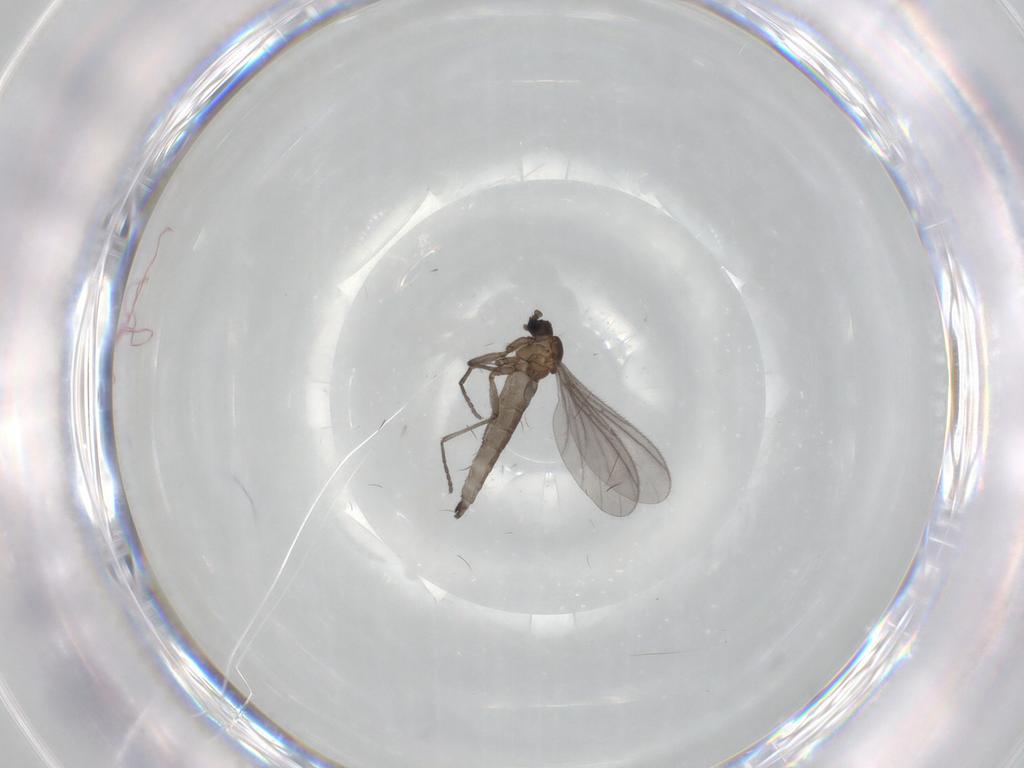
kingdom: Animalia
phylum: Arthropoda
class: Insecta
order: Diptera
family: Sciaridae
